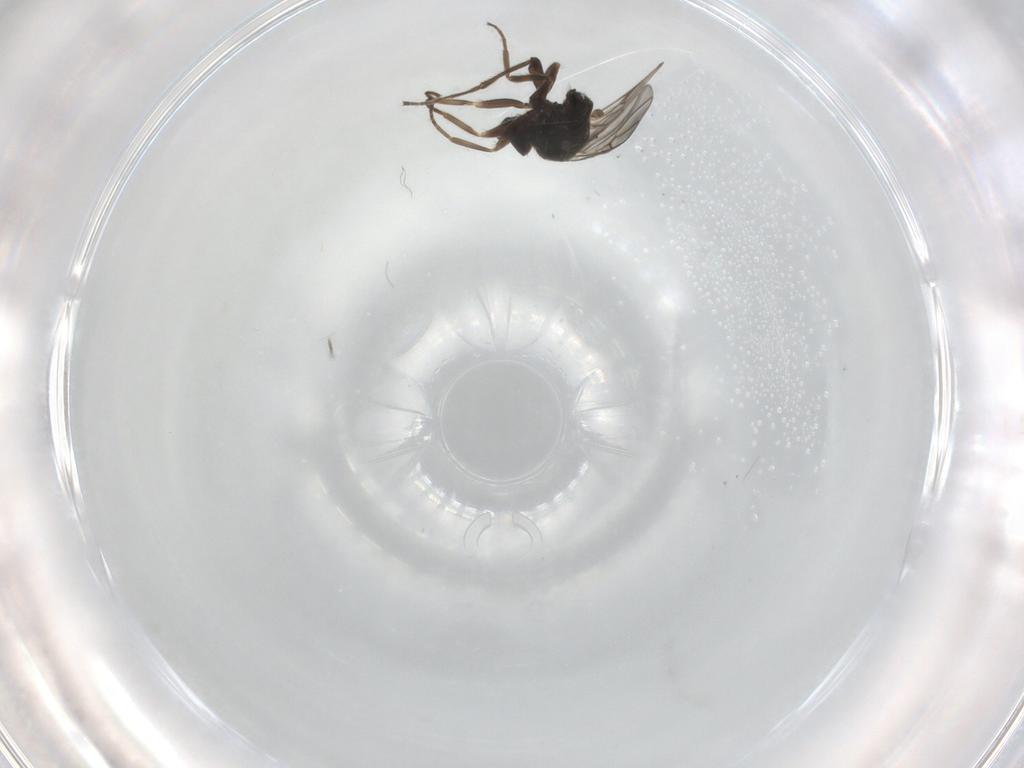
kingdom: Animalia
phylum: Arthropoda
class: Insecta
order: Diptera
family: Hybotidae
